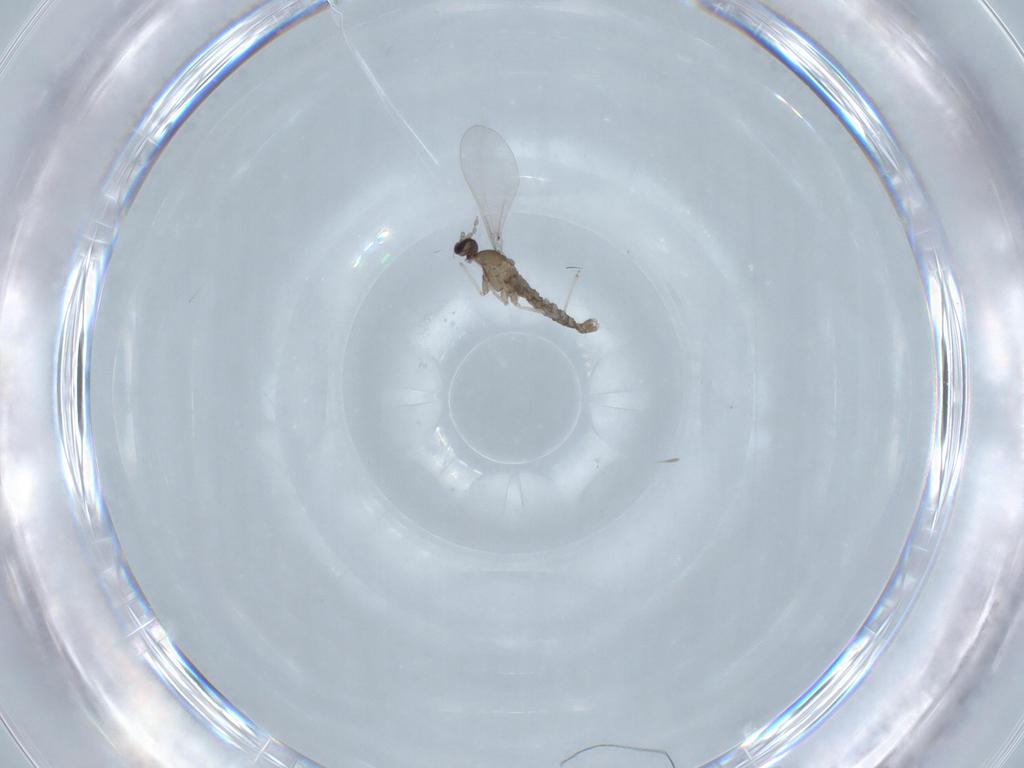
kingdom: Animalia
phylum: Arthropoda
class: Insecta
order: Diptera
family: Cecidomyiidae
